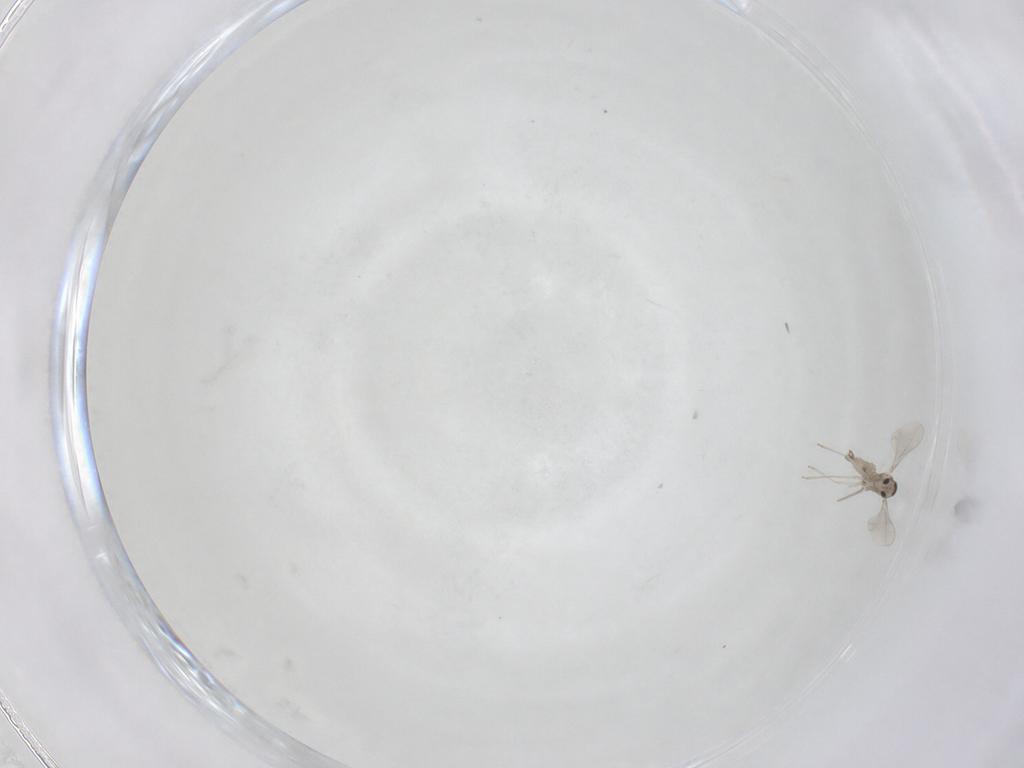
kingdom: Animalia
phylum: Arthropoda
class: Insecta
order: Diptera
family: Cecidomyiidae
